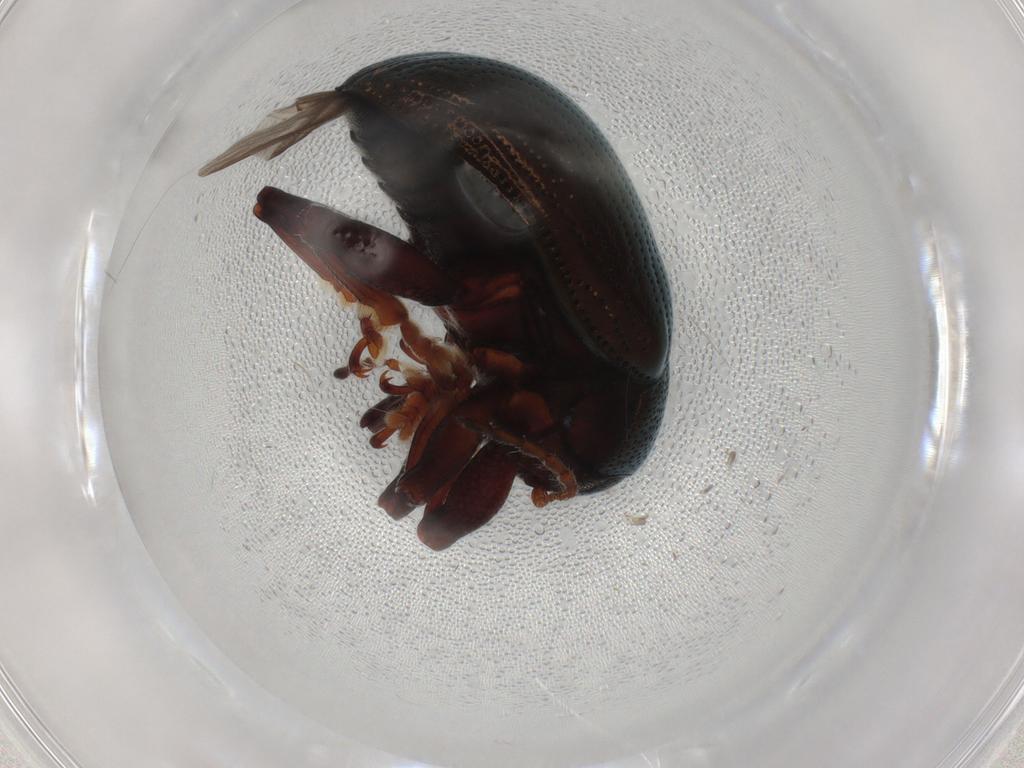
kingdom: Animalia
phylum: Arthropoda
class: Insecta
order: Coleoptera
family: Chrysomelidae
